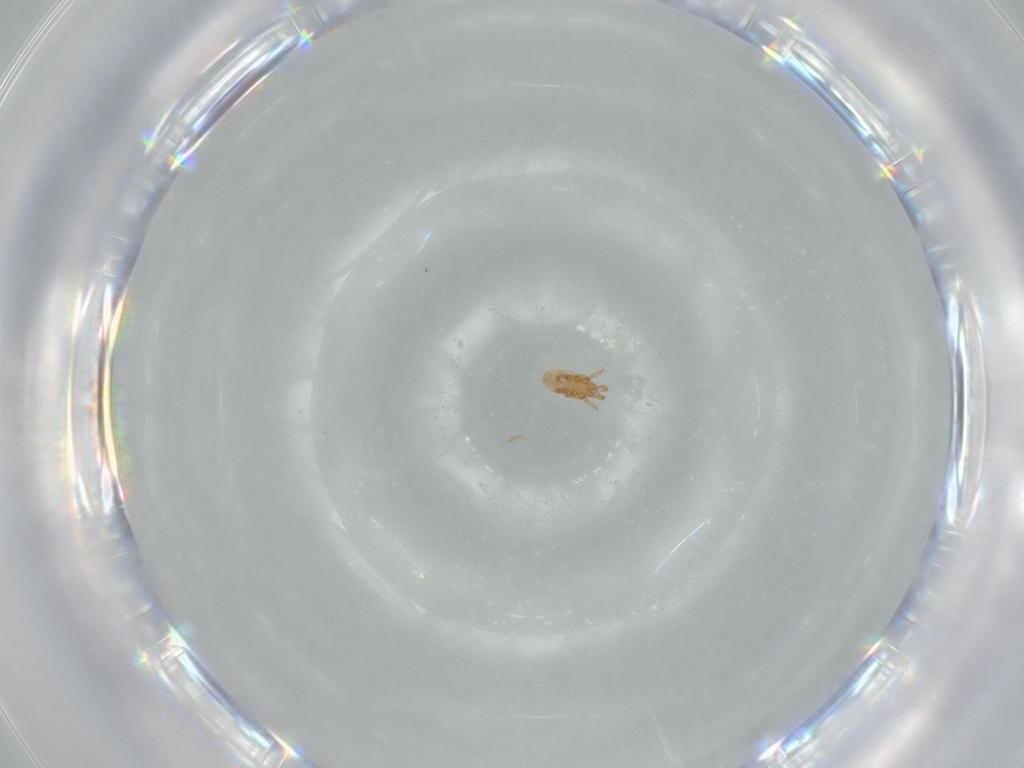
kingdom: Animalia
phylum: Arthropoda
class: Arachnida
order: Mesostigmata
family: Dinychidae
